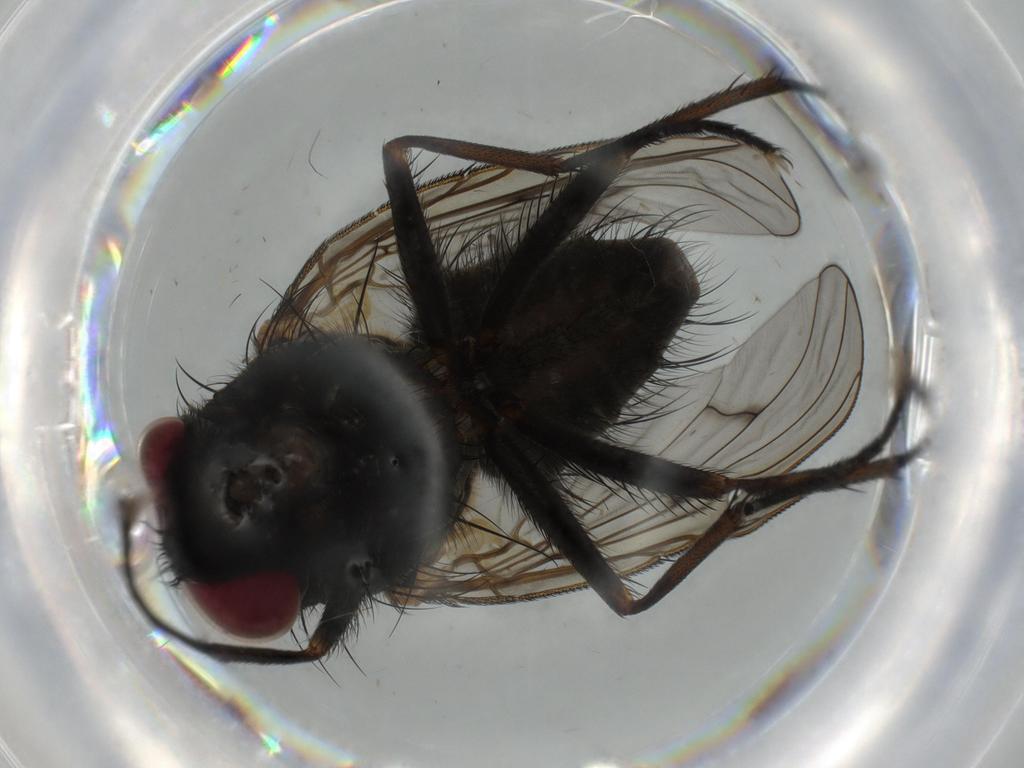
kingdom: Animalia
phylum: Arthropoda
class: Insecta
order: Diptera
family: Muscidae
